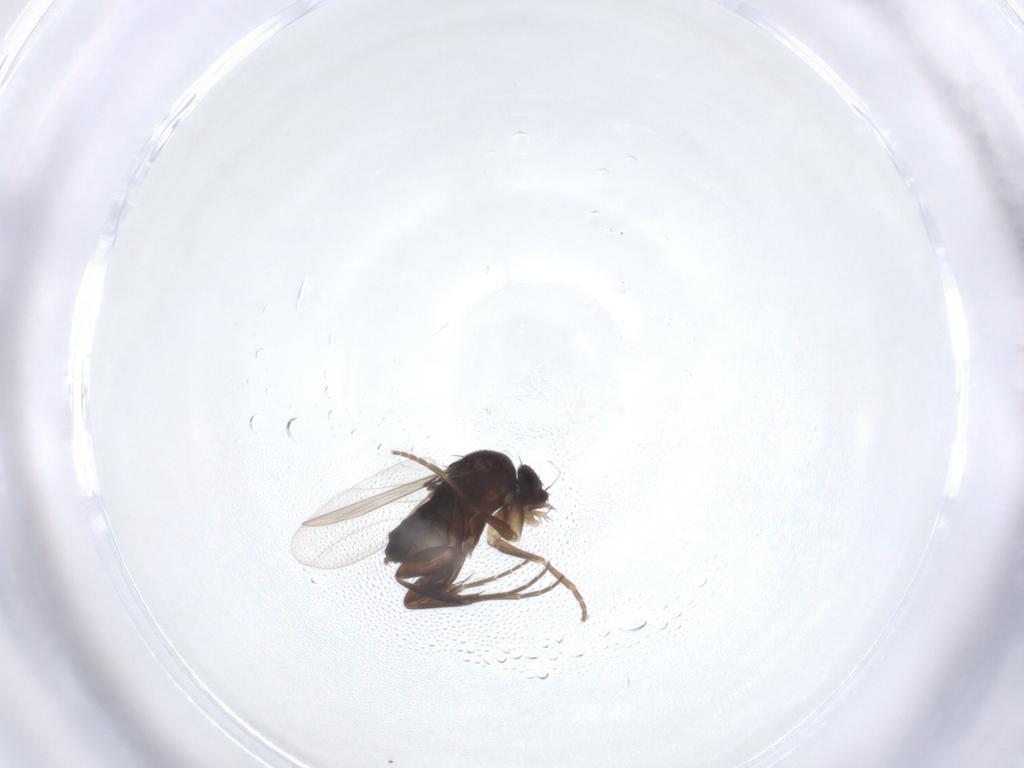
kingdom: Animalia
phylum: Arthropoda
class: Insecta
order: Diptera
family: Phoridae
